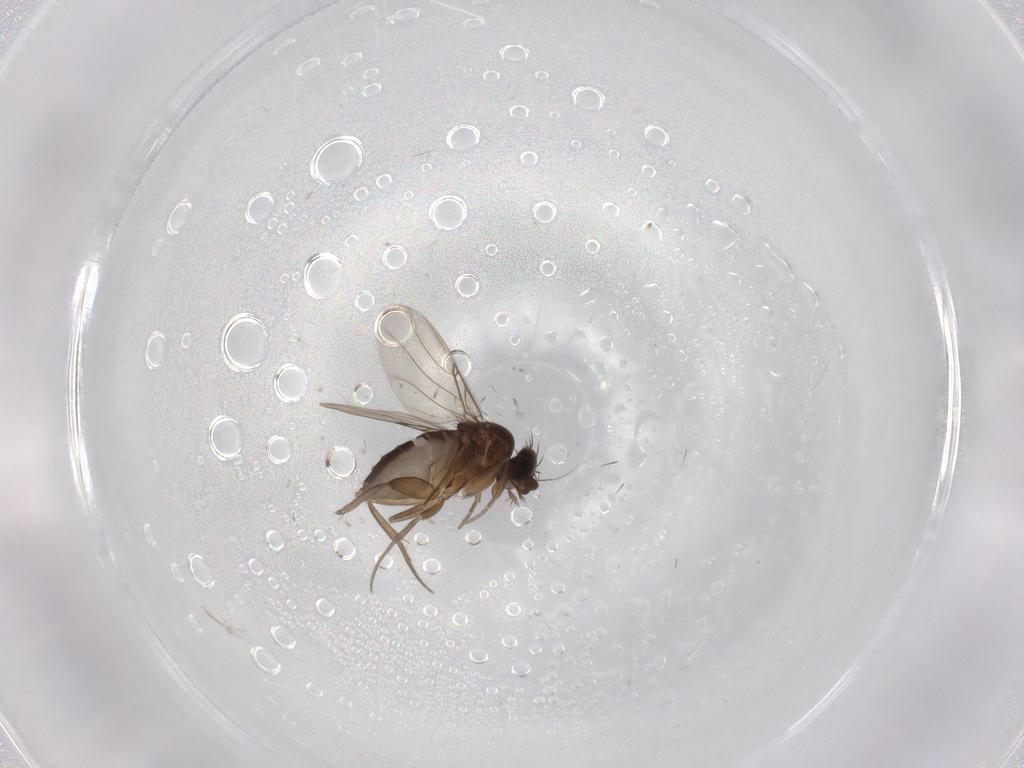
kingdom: Animalia
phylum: Arthropoda
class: Insecta
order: Diptera
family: Phoridae
